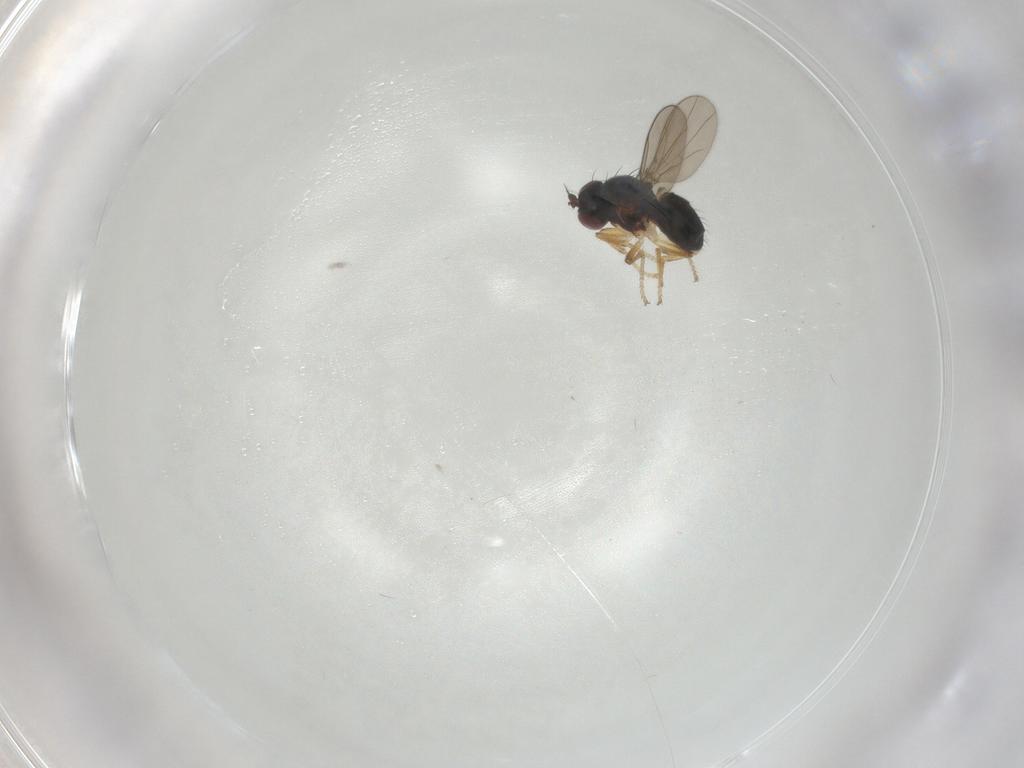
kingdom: Animalia
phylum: Arthropoda
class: Insecta
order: Diptera
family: Ephydridae
